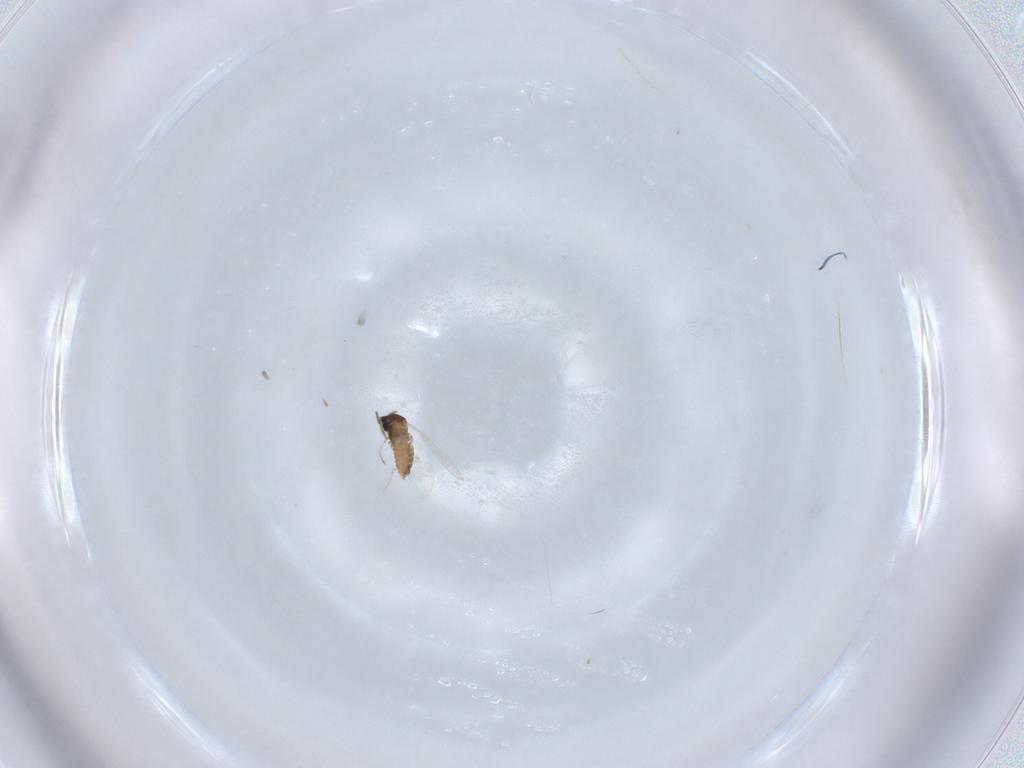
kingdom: Animalia
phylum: Arthropoda
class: Insecta
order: Diptera
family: Cecidomyiidae
